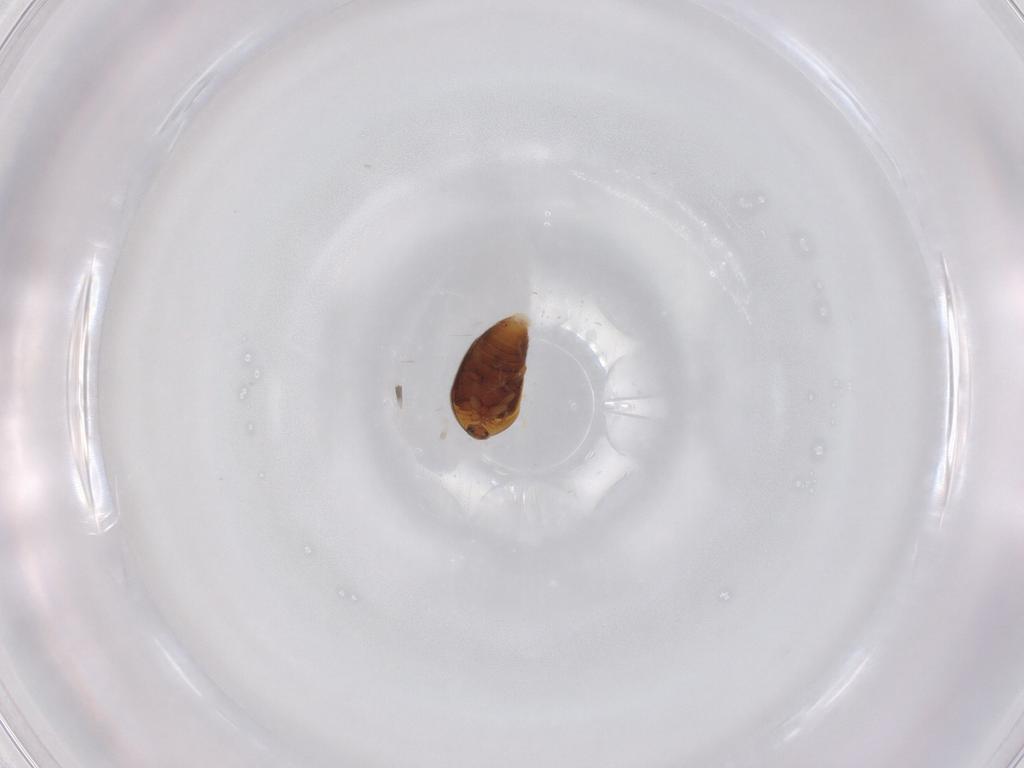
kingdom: Animalia
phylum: Arthropoda
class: Insecta
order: Coleoptera
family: Corylophidae
